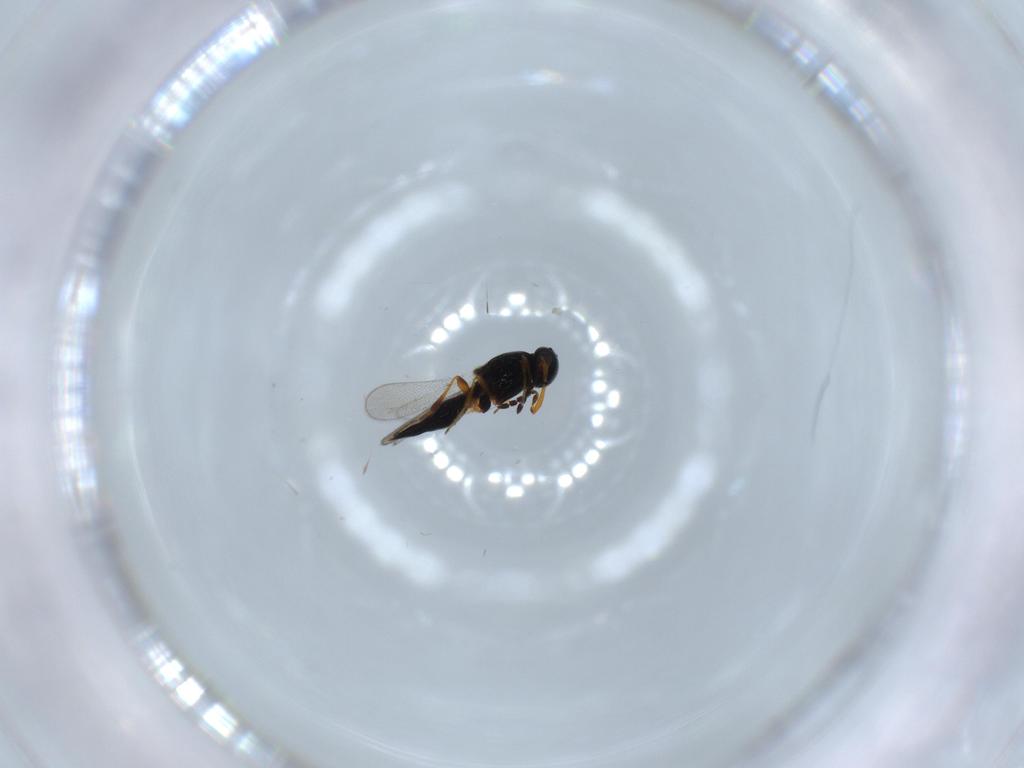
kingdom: Animalia
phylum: Arthropoda
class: Insecta
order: Hymenoptera
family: Platygastridae
